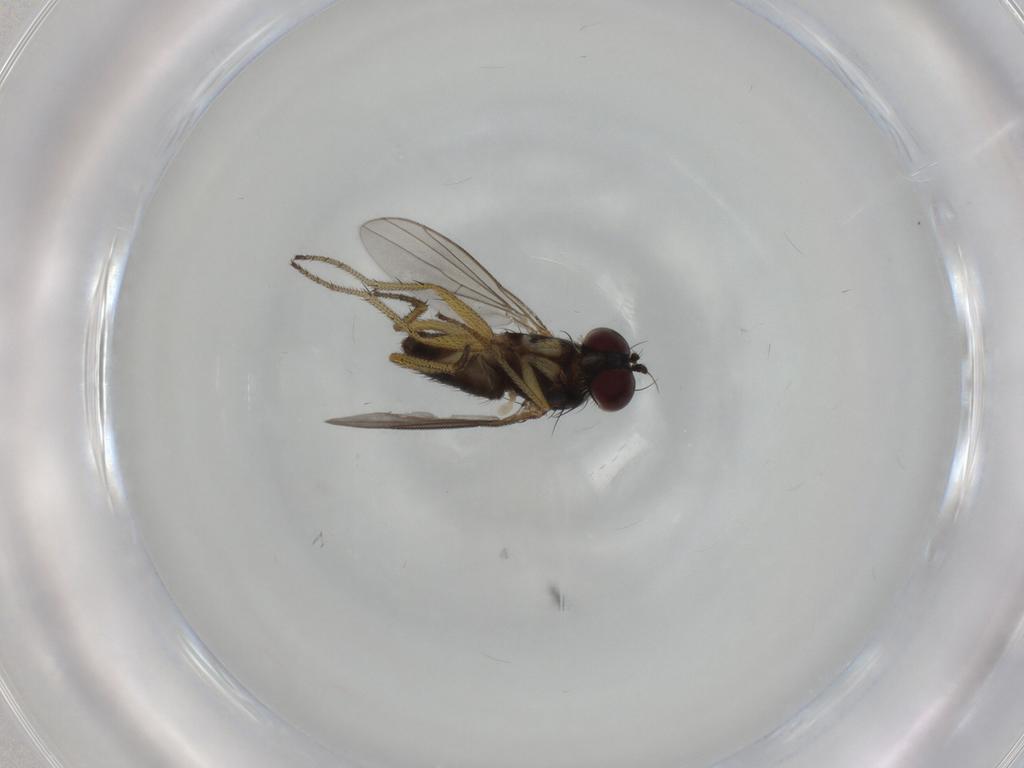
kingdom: Animalia
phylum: Arthropoda
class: Insecta
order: Diptera
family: Dolichopodidae
